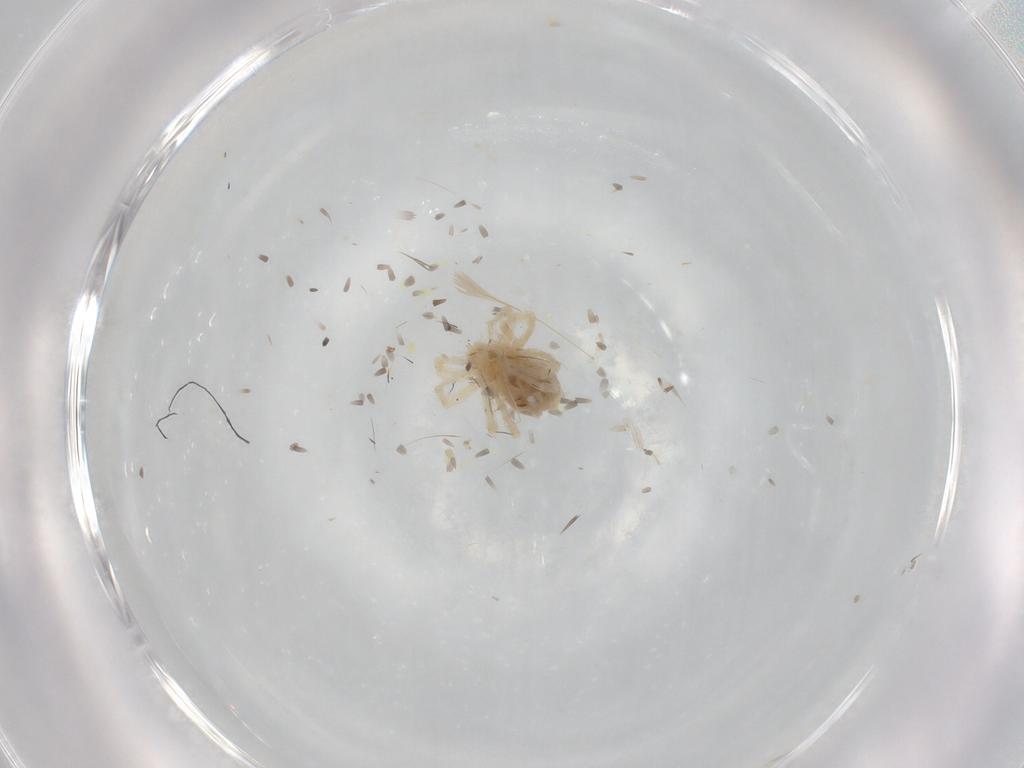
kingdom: Animalia
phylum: Arthropoda
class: Arachnida
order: Trombidiformes
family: Anystidae
